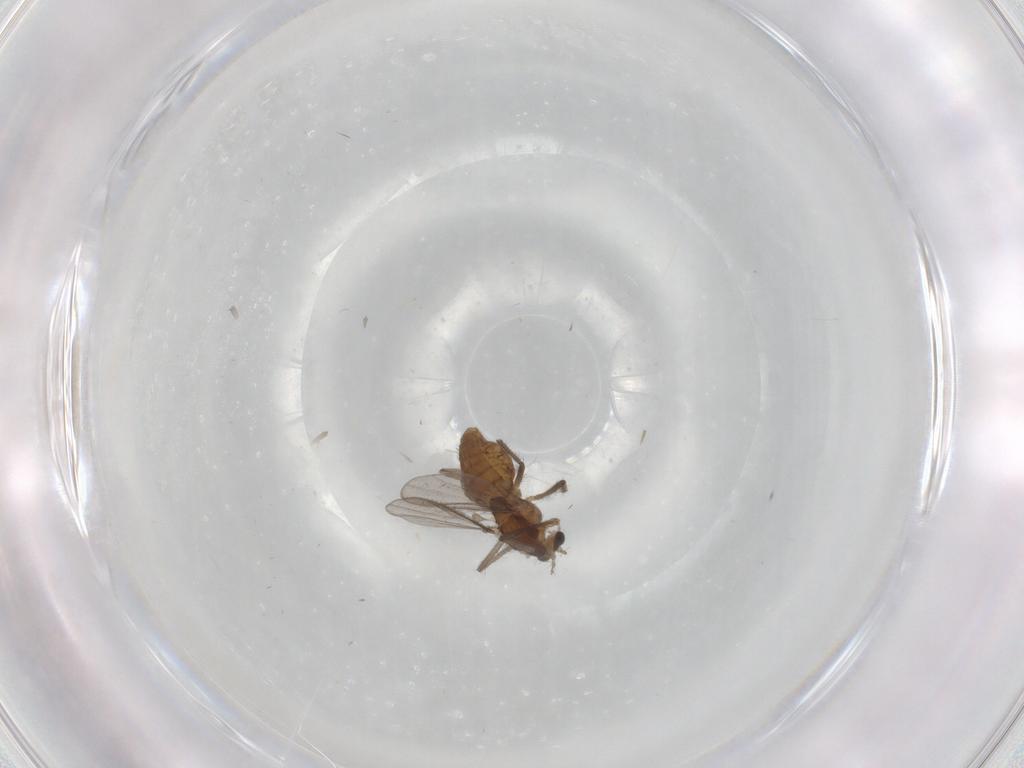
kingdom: Animalia
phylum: Arthropoda
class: Insecta
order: Diptera
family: Chironomidae
